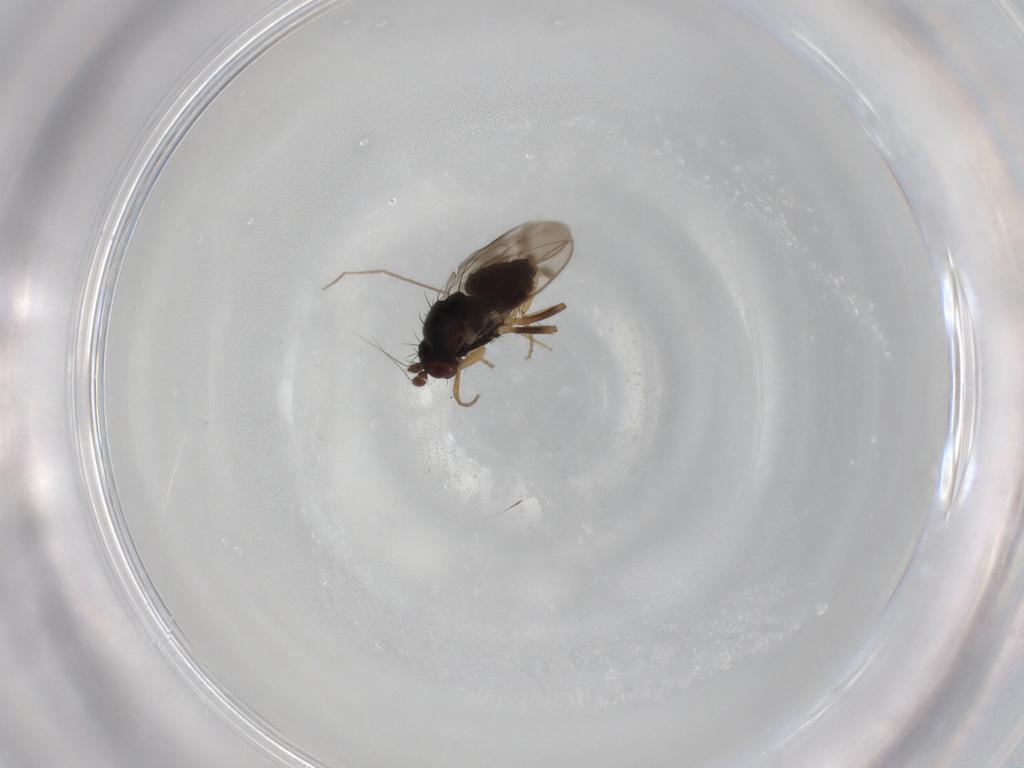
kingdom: Animalia
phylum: Arthropoda
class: Insecta
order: Diptera
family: Sphaeroceridae
